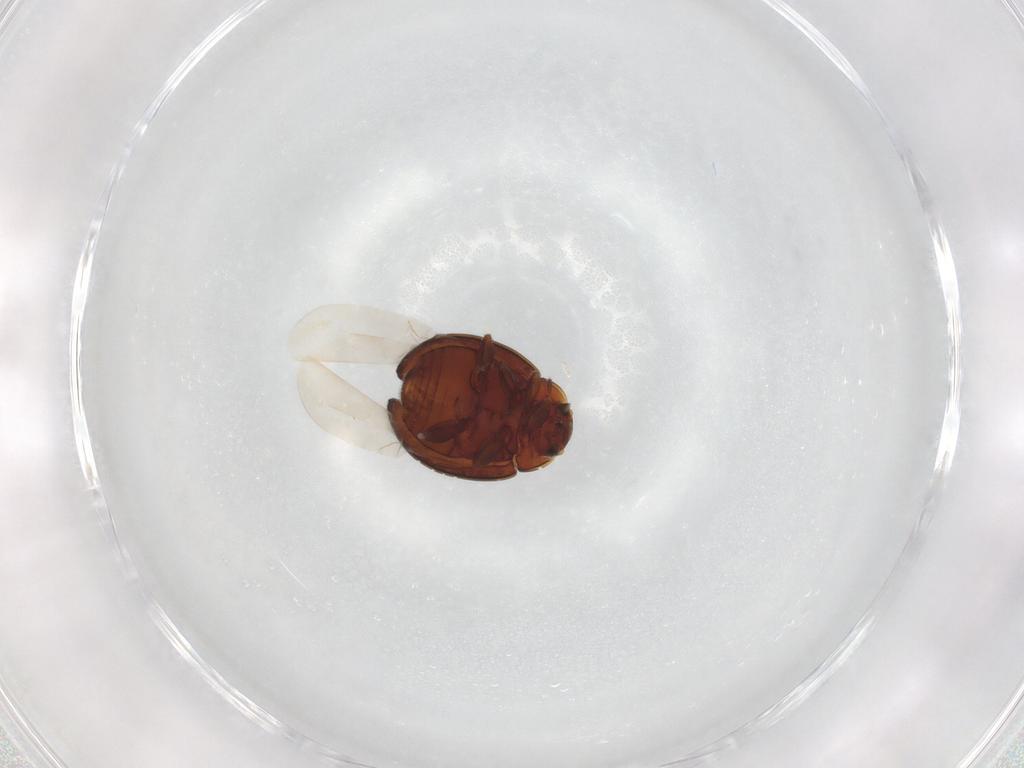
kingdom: Animalia
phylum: Arthropoda
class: Insecta
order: Coleoptera
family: Coccinellidae
